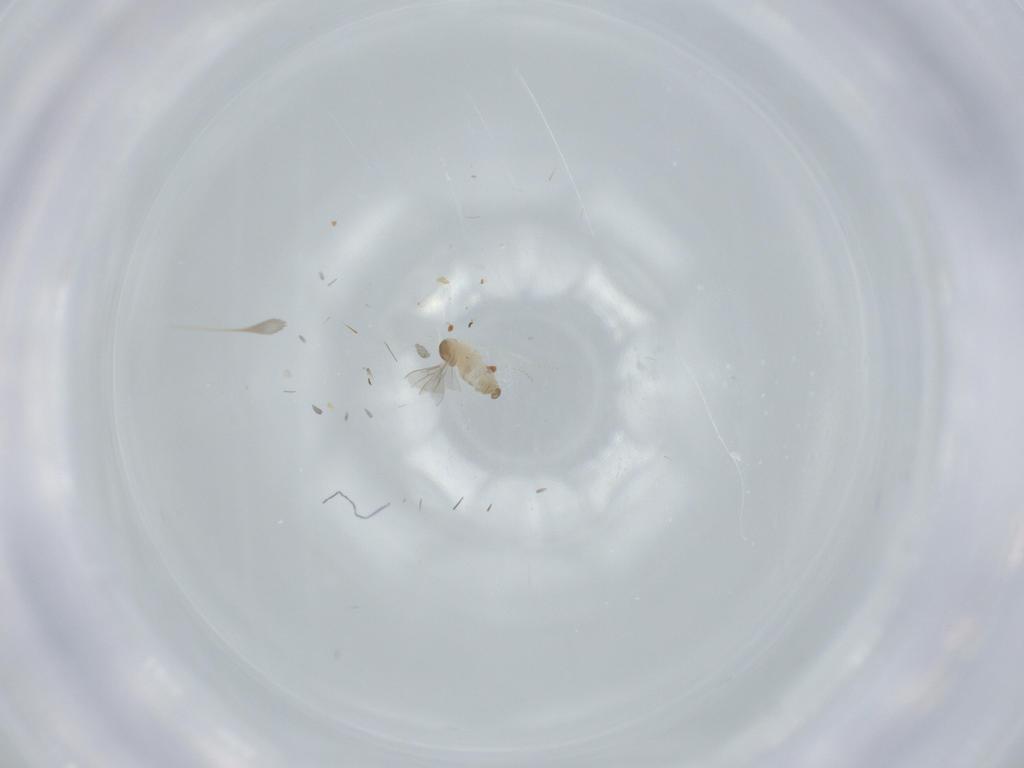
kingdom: Animalia
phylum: Arthropoda
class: Insecta
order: Diptera
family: Cecidomyiidae
